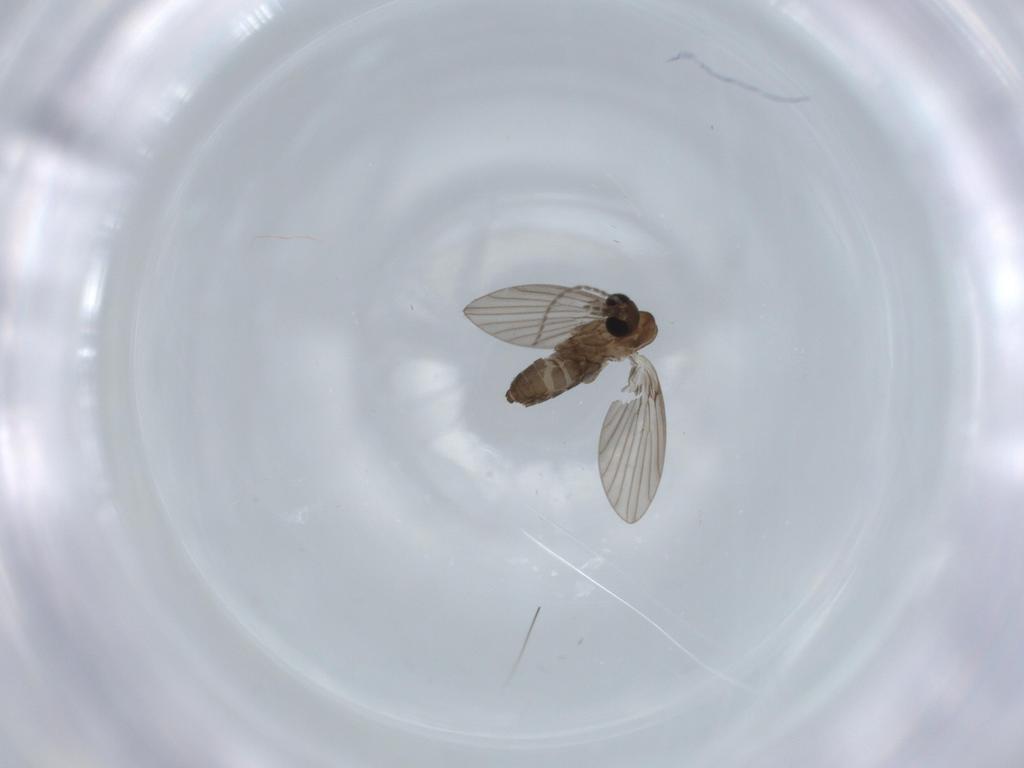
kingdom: Animalia
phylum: Arthropoda
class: Insecta
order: Diptera
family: Psychodidae
